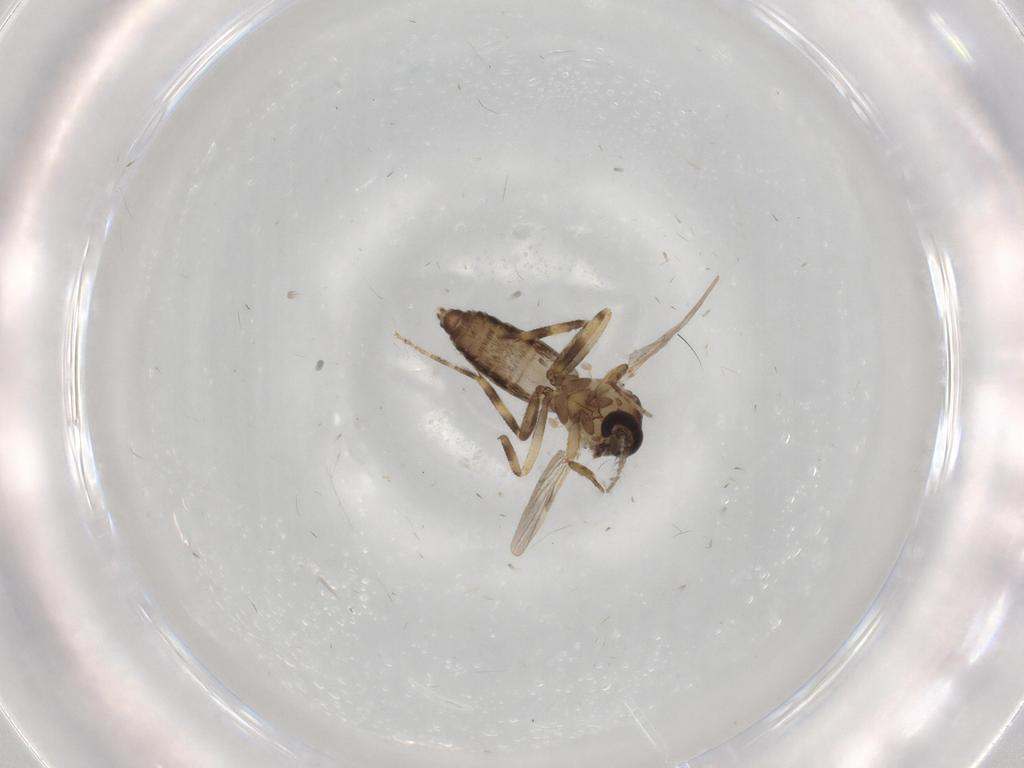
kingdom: Animalia
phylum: Arthropoda
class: Insecta
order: Diptera
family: Ceratopogonidae
